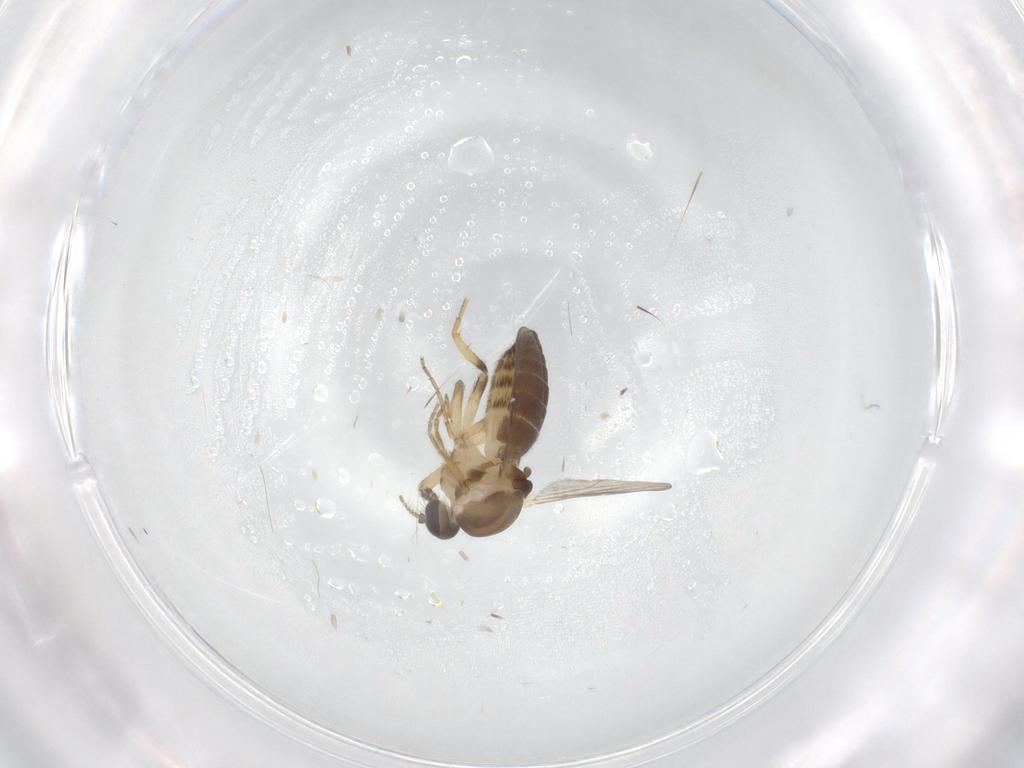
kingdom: Animalia
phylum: Arthropoda
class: Insecta
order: Diptera
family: Ceratopogonidae
